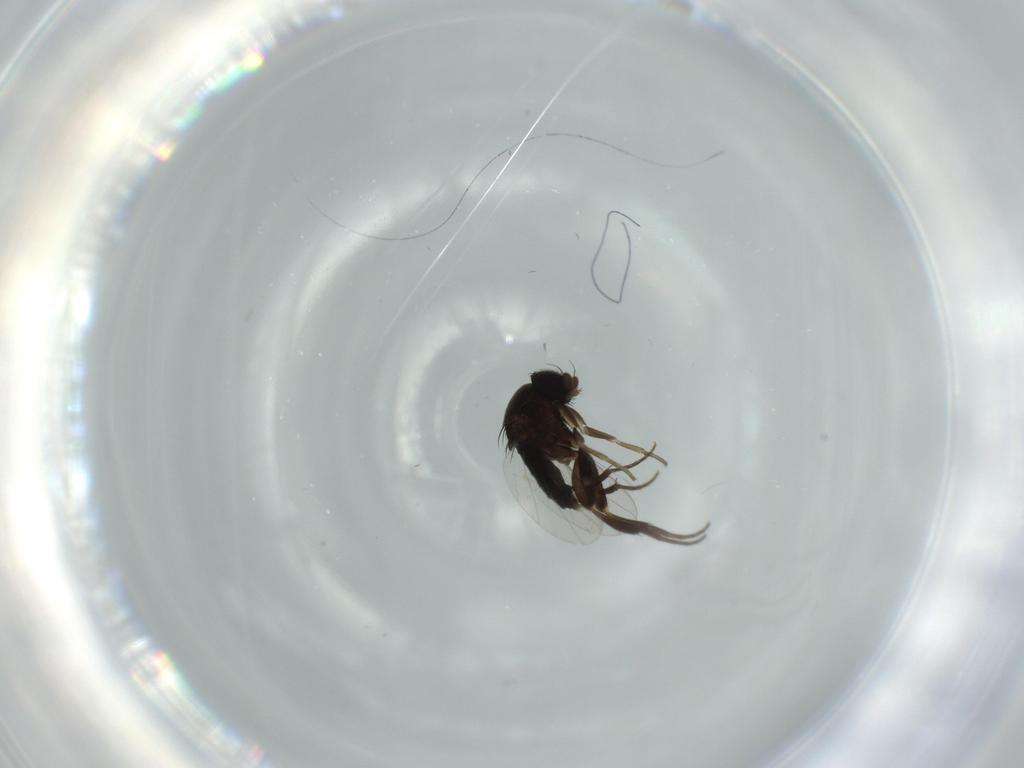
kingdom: Animalia
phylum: Arthropoda
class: Insecta
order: Diptera
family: Phoridae
